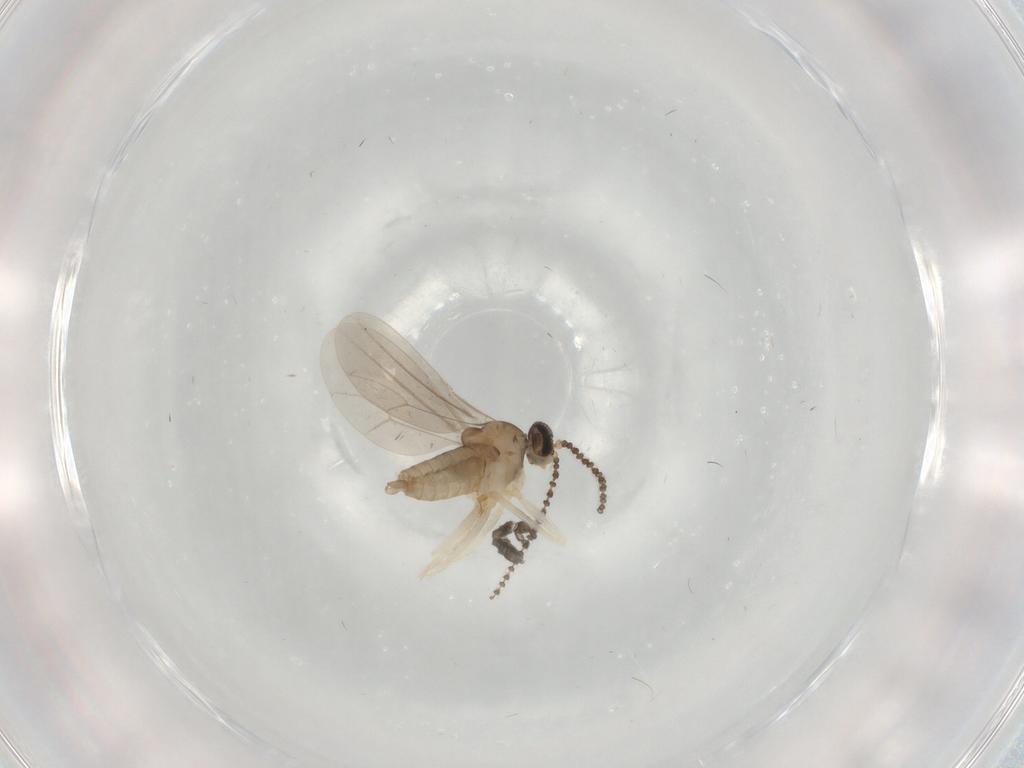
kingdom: Animalia
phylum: Arthropoda
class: Insecta
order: Diptera
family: Sciaridae
